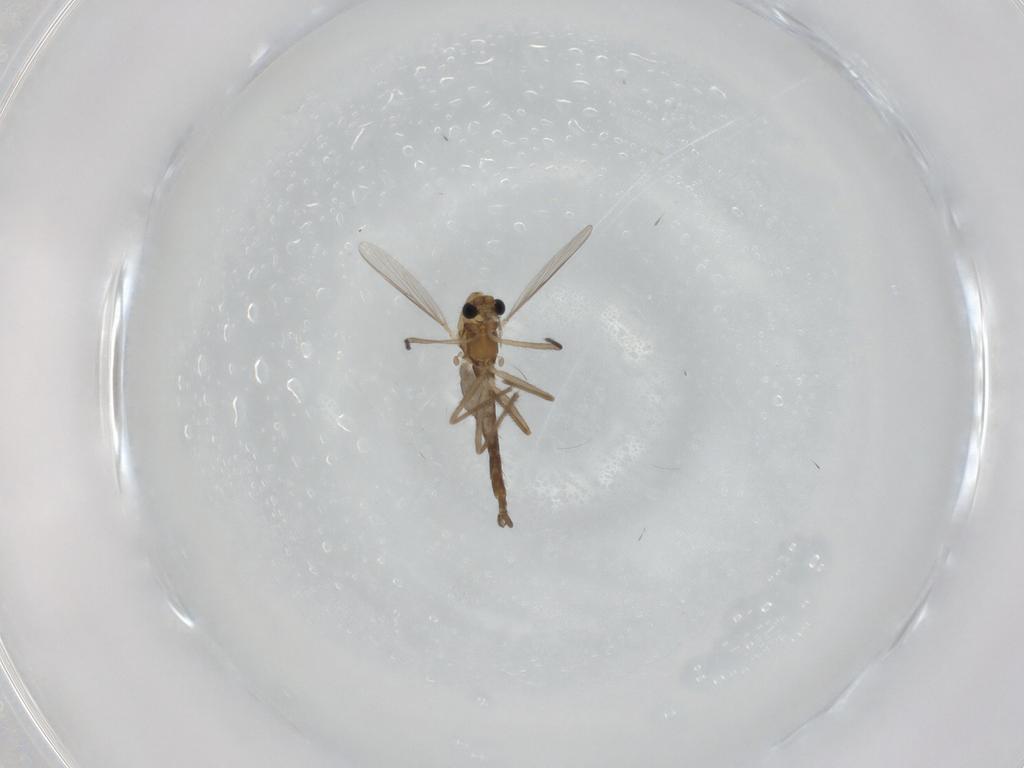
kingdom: Animalia
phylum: Arthropoda
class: Insecta
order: Diptera
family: Chironomidae
